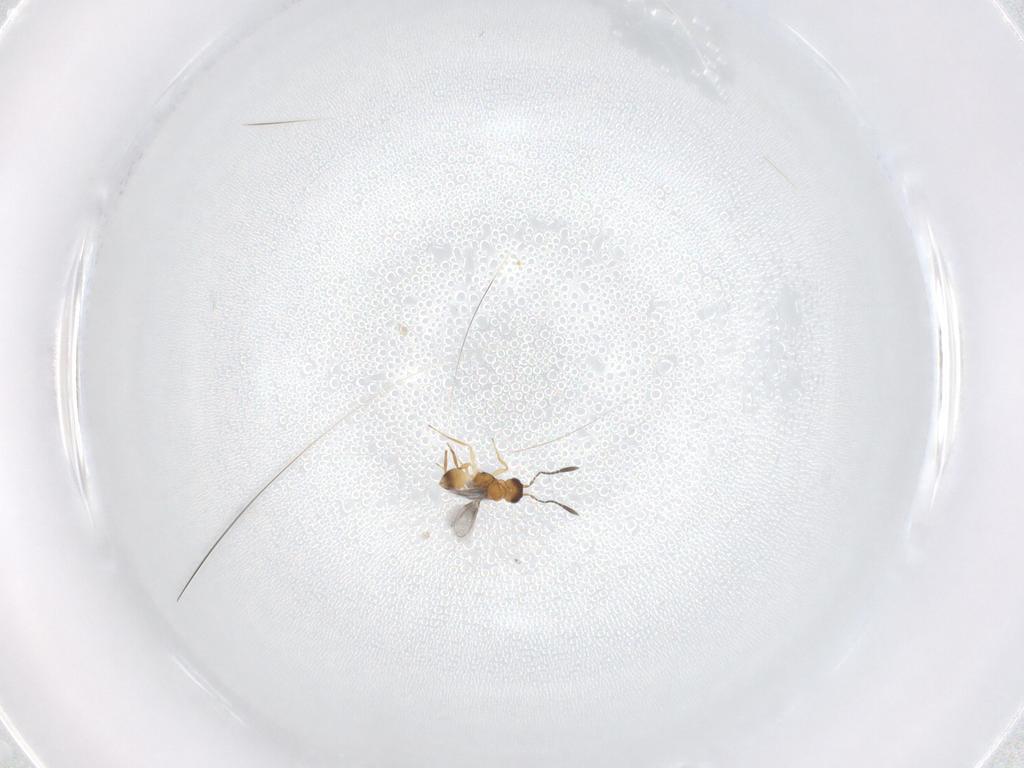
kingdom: Animalia
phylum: Arthropoda
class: Insecta
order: Hymenoptera
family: Mymaridae
